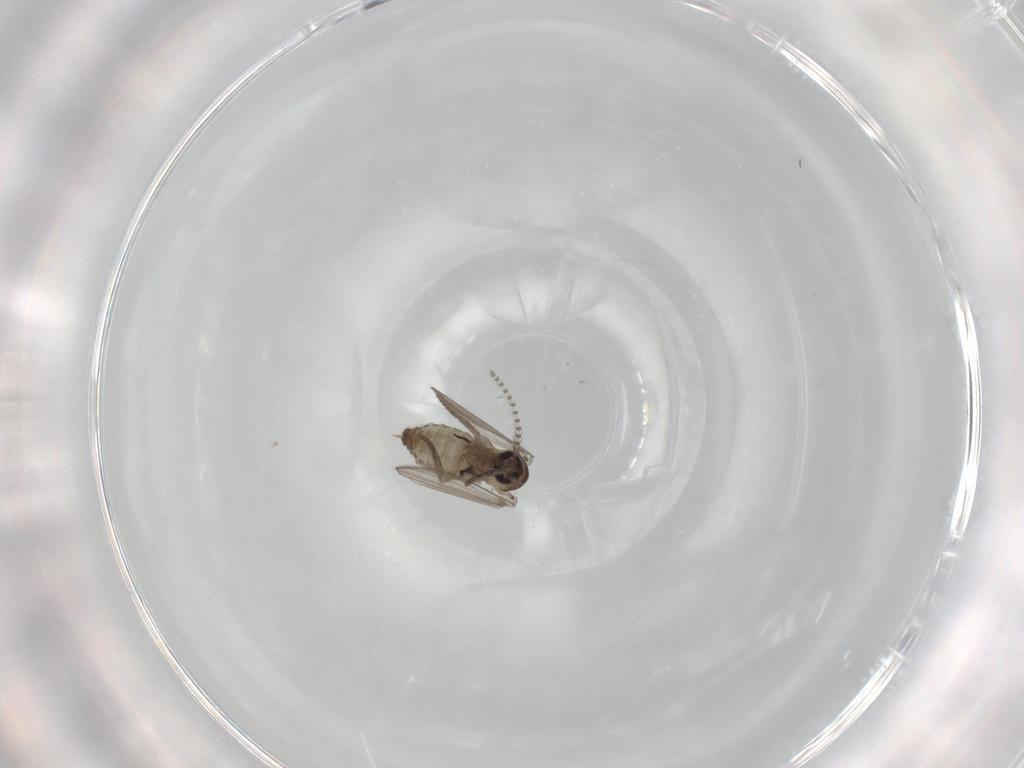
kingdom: Animalia
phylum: Arthropoda
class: Insecta
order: Diptera
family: Psychodidae
